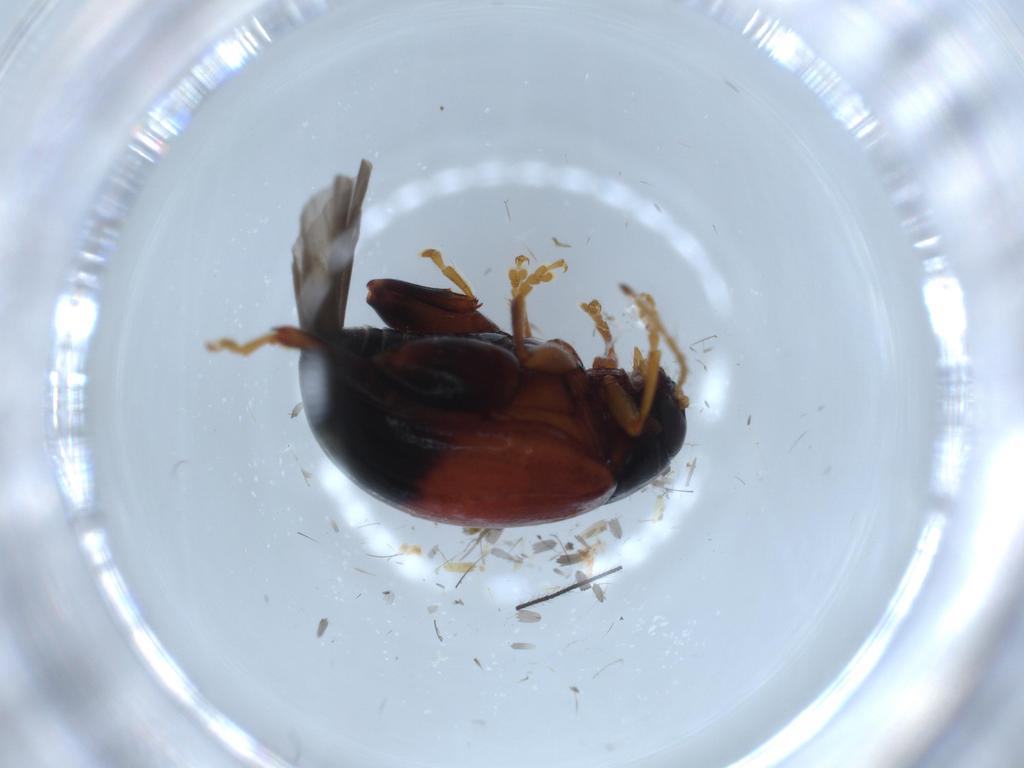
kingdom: Animalia
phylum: Arthropoda
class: Insecta
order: Coleoptera
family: Chrysomelidae
